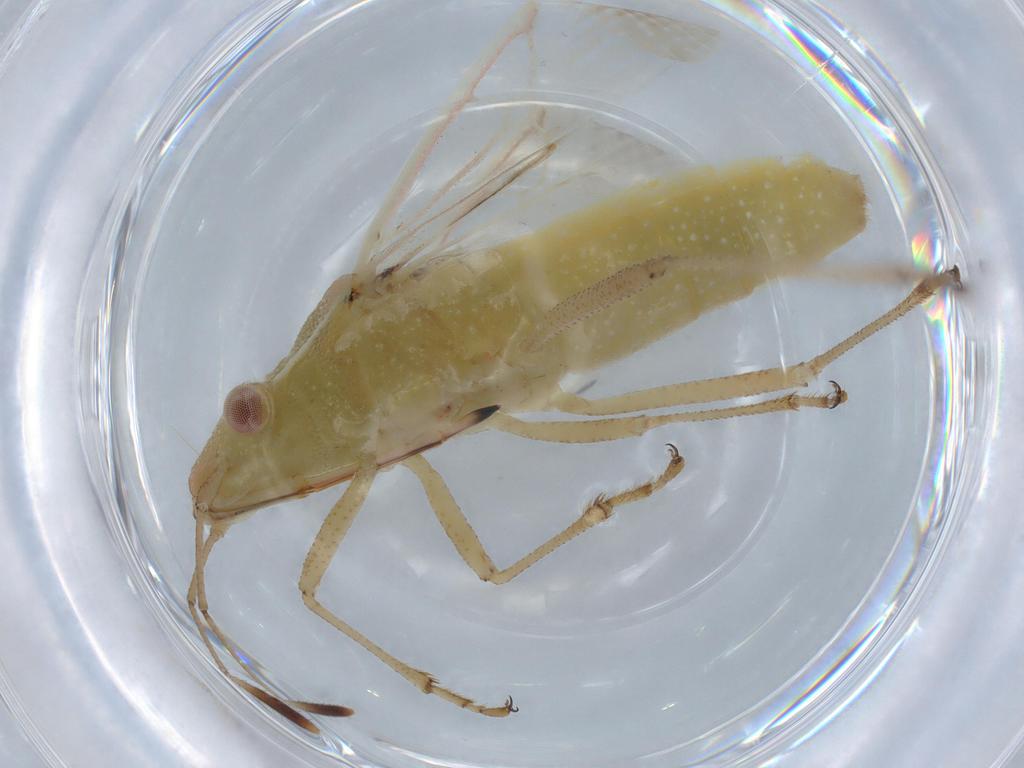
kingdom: Animalia
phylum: Arthropoda
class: Insecta
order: Hemiptera
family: Rhopalidae
